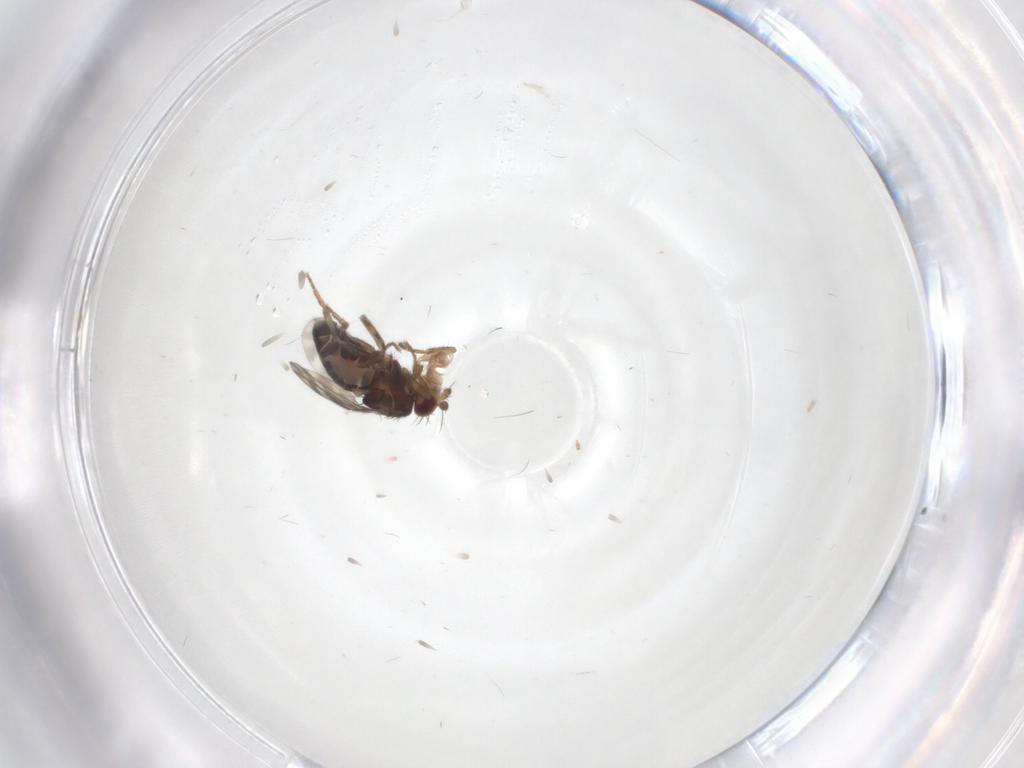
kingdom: Animalia
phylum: Arthropoda
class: Insecta
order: Diptera
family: Sphaeroceridae
